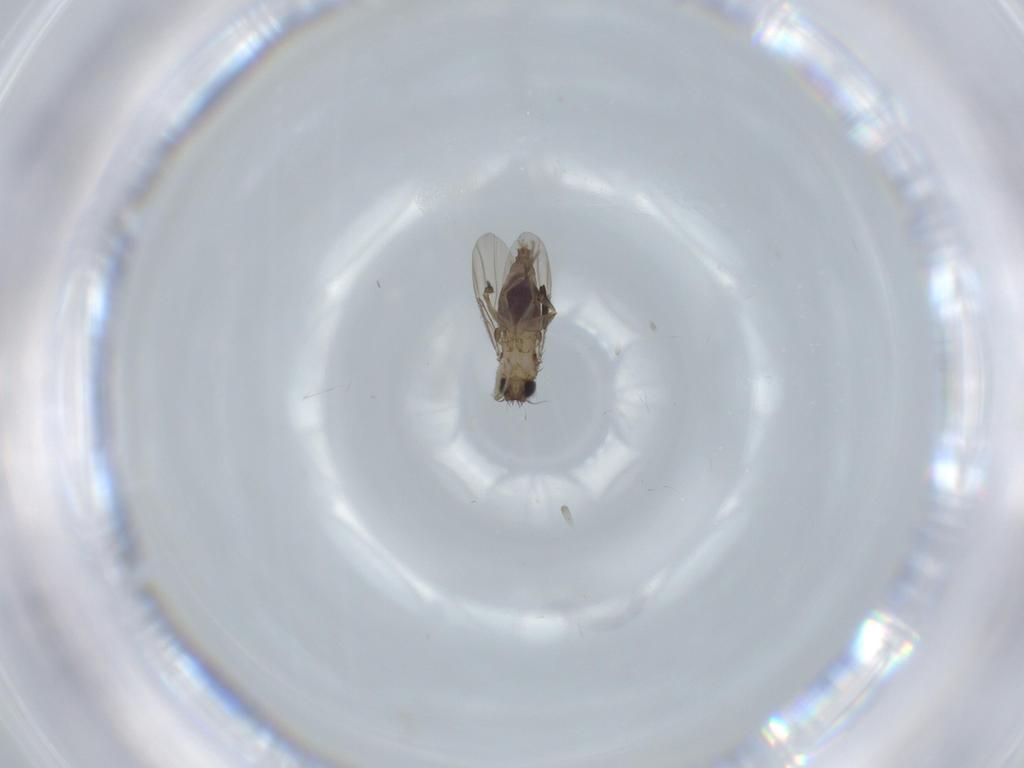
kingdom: Animalia
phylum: Arthropoda
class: Insecta
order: Diptera
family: Phoridae
